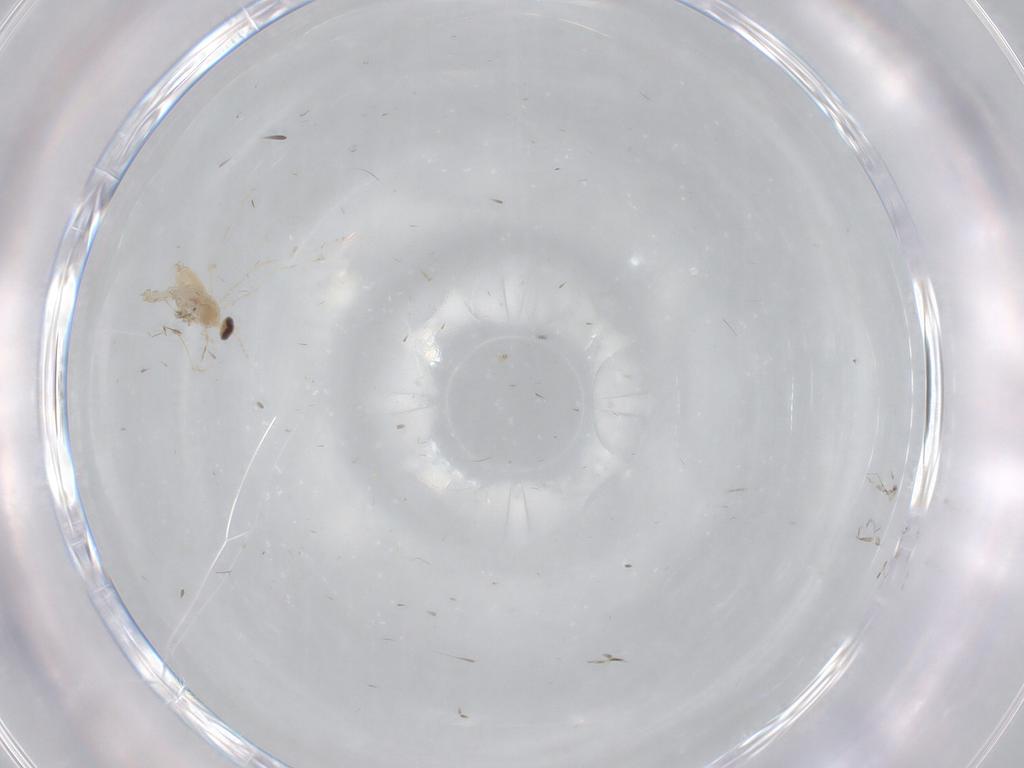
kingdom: Animalia
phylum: Arthropoda
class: Insecta
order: Diptera
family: Cecidomyiidae
